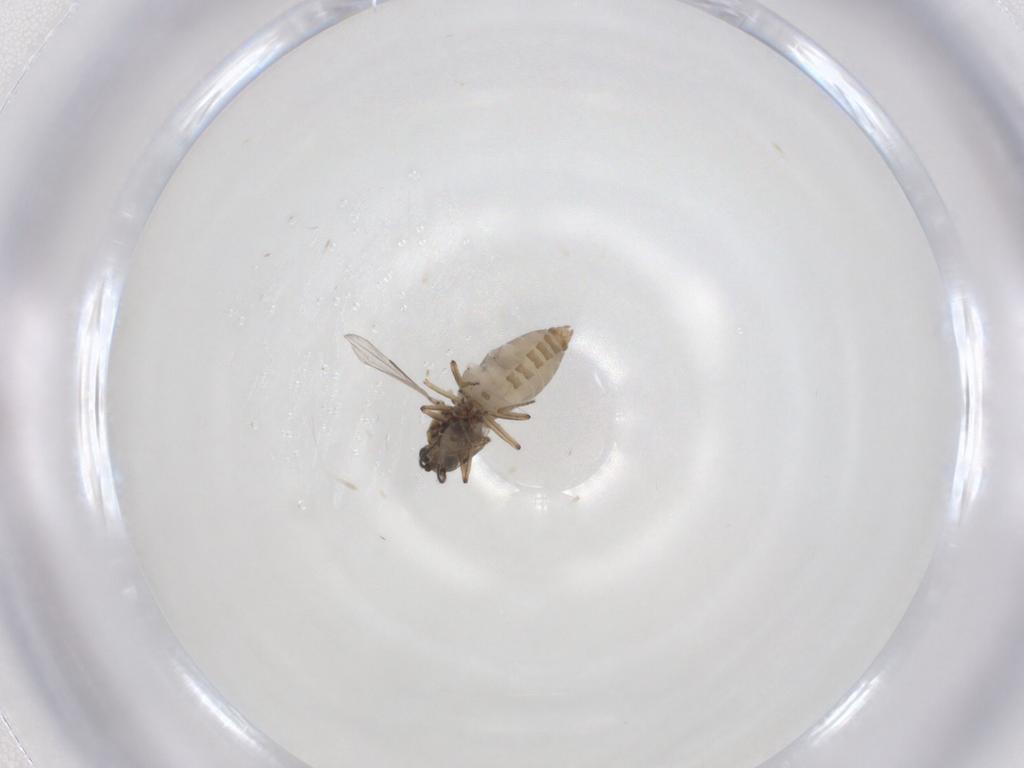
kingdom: Animalia
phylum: Arthropoda
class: Insecta
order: Diptera
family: Ceratopogonidae
